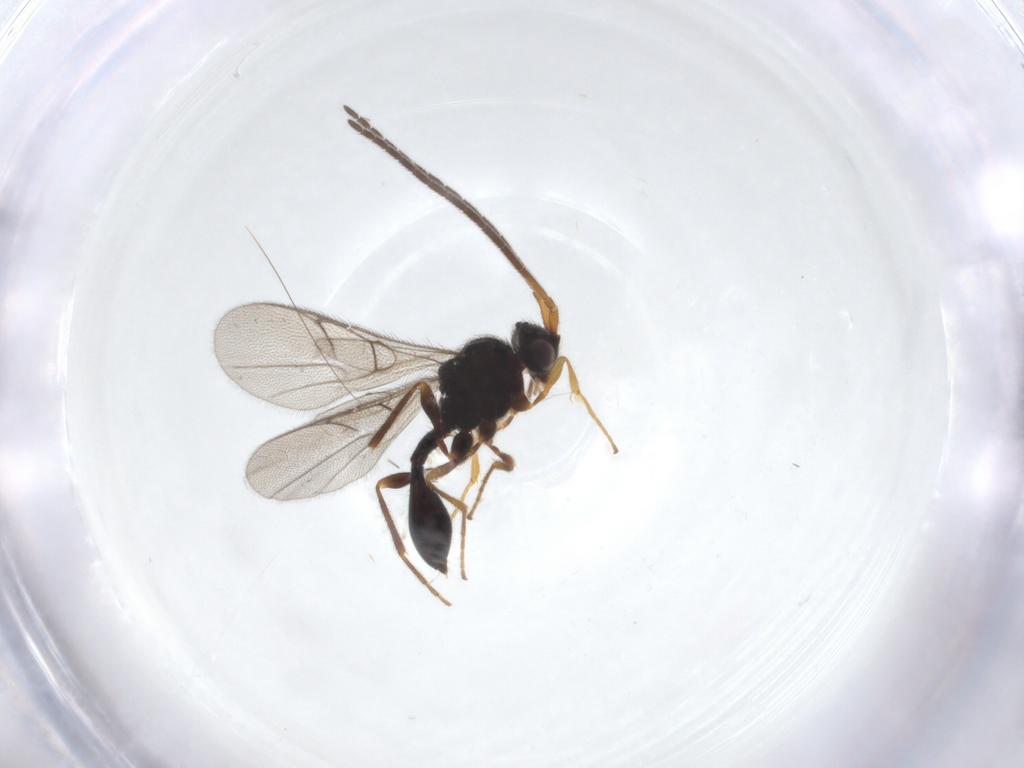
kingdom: Animalia
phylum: Arthropoda
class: Insecta
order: Hymenoptera
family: Diapriidae
